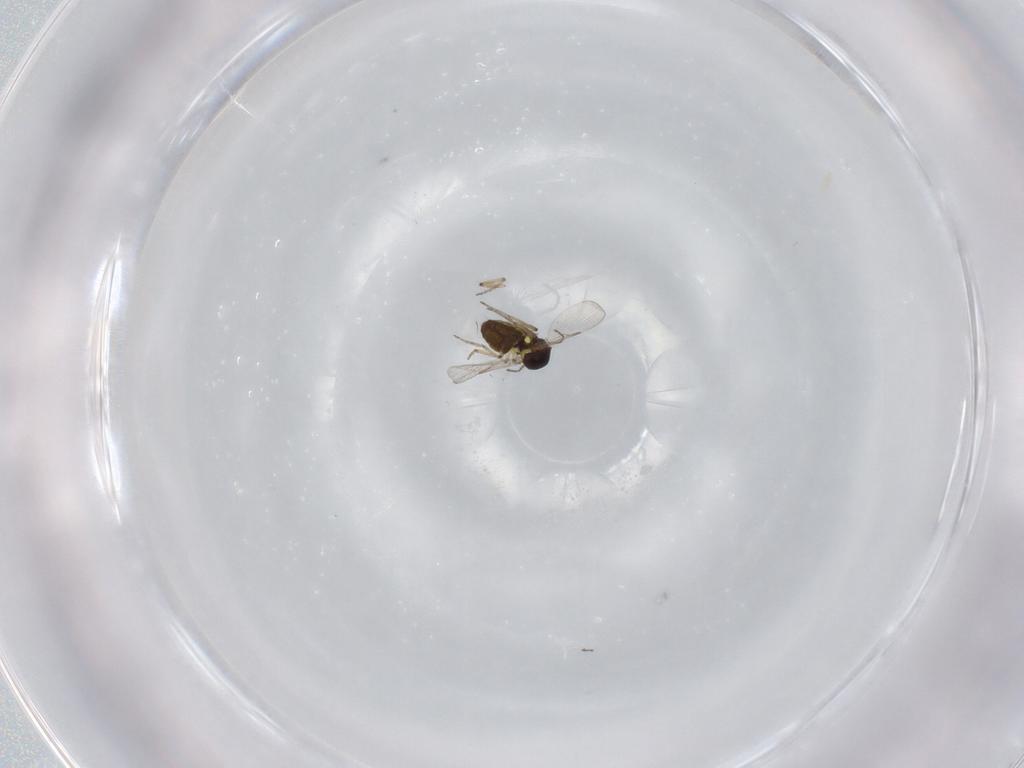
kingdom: Animalia
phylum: Arthropoda
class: Insecta
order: Diptera
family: Ceratopogonidae
